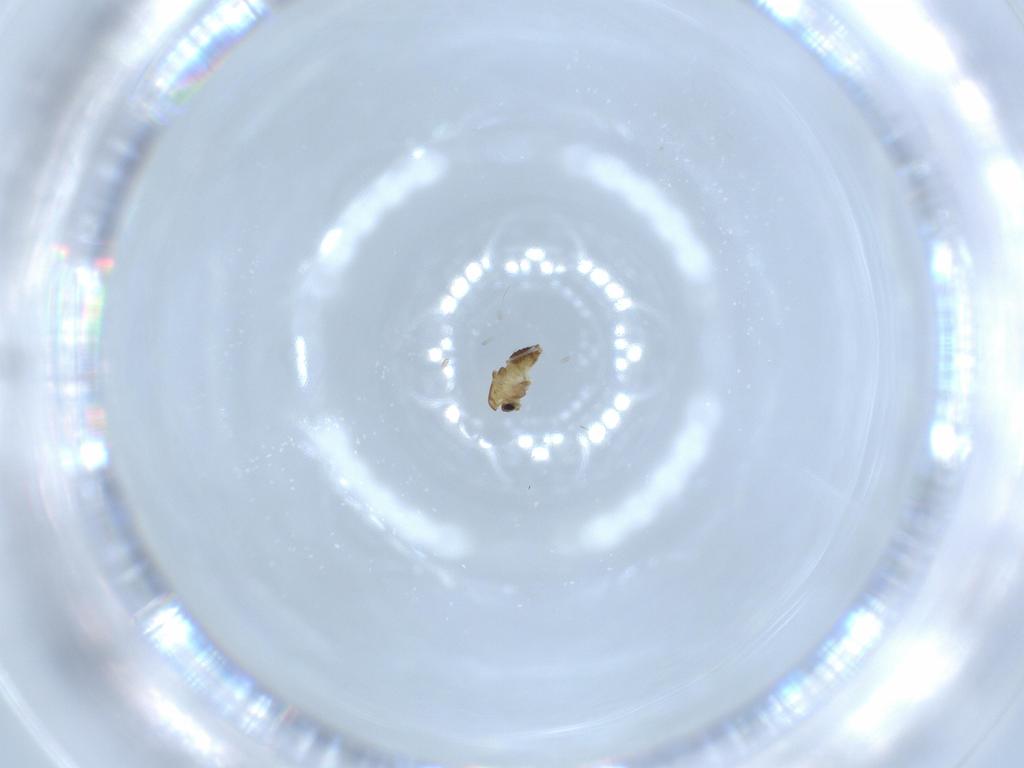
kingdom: Animalia
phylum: Arthropoda
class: Insecta
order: Diptera
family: Chironomidae
